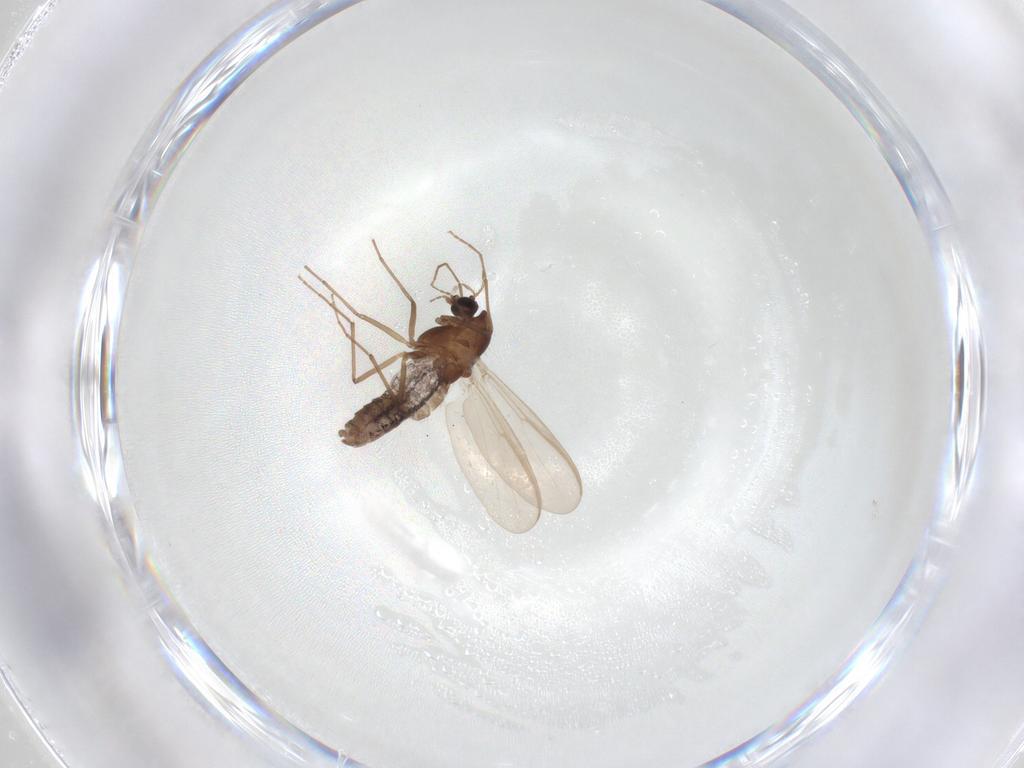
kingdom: Animalia
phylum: Arthropoda
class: Insecta
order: Diptera
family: Chironomidae
